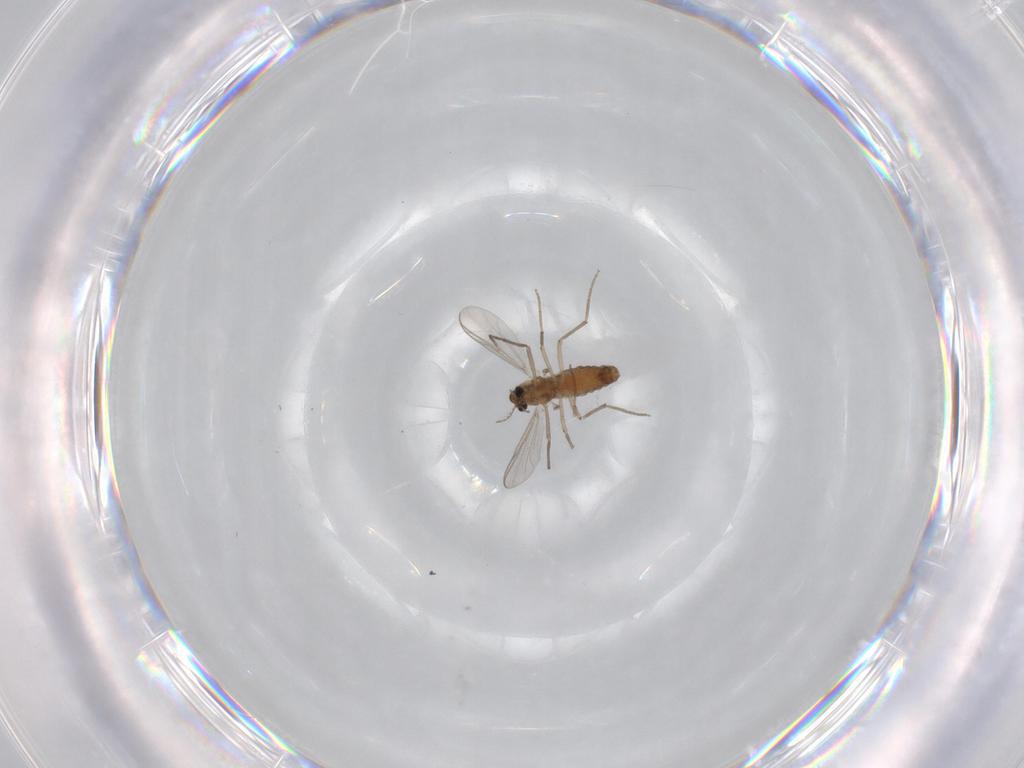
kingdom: Animalia
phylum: Arthropoda
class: Insecta
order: Diptera
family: Chironomidae
